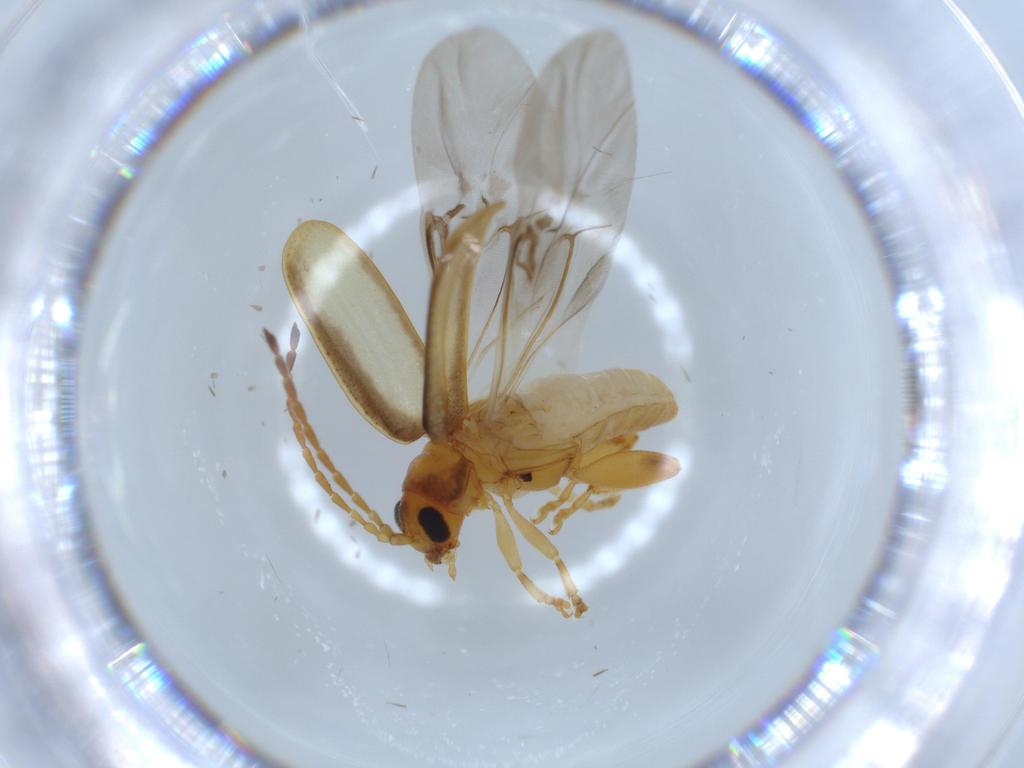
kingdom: Animalia
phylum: Arthropoda
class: Insecta
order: Coleoptera
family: Chrysomelidae
